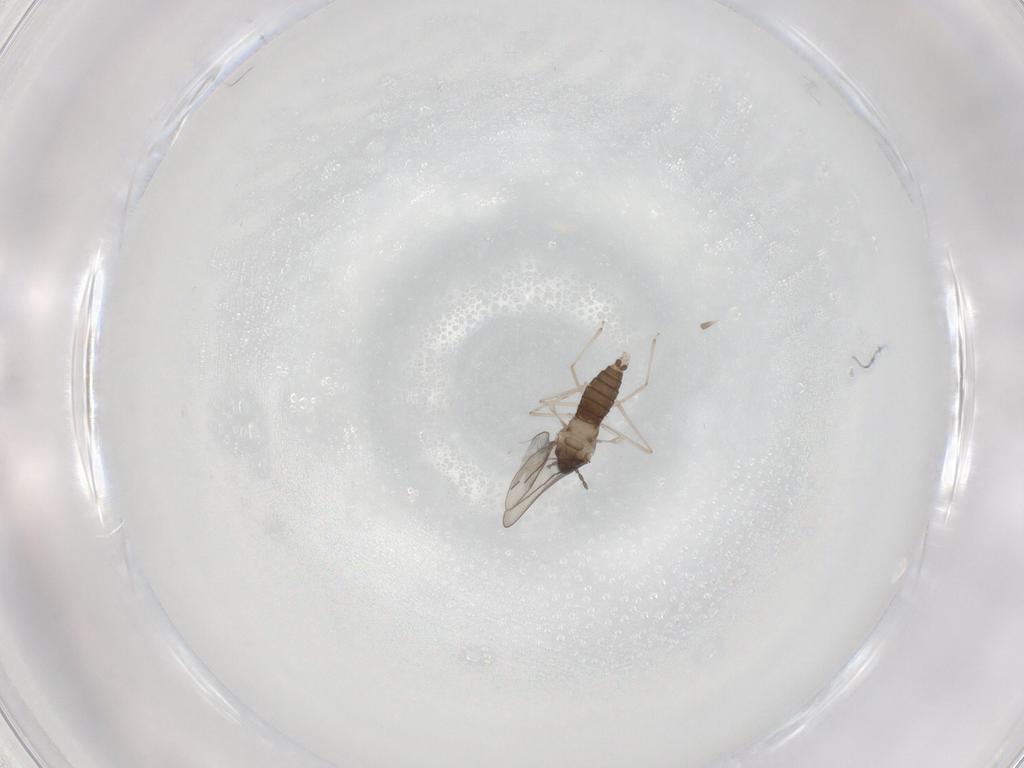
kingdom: Animalia
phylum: Arthropoda
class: Insecta
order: Diptera
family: Cecidomyiidae
